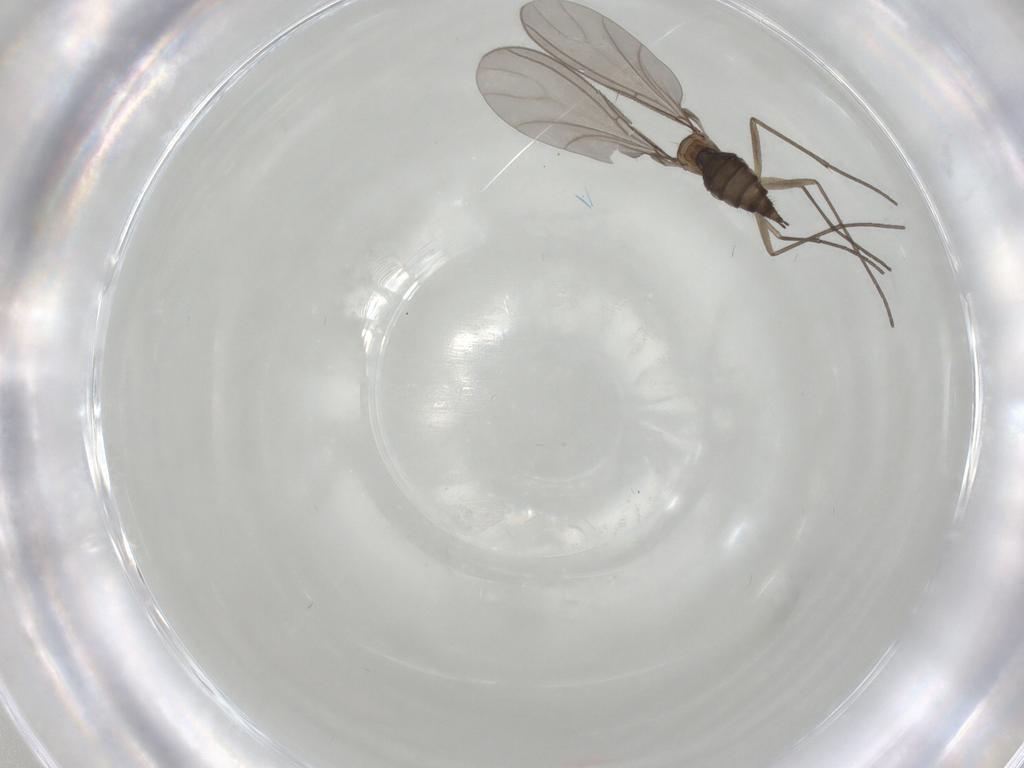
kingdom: Animalia
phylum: Arthropoda
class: Insecta
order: Diptera
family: Sciaridae
